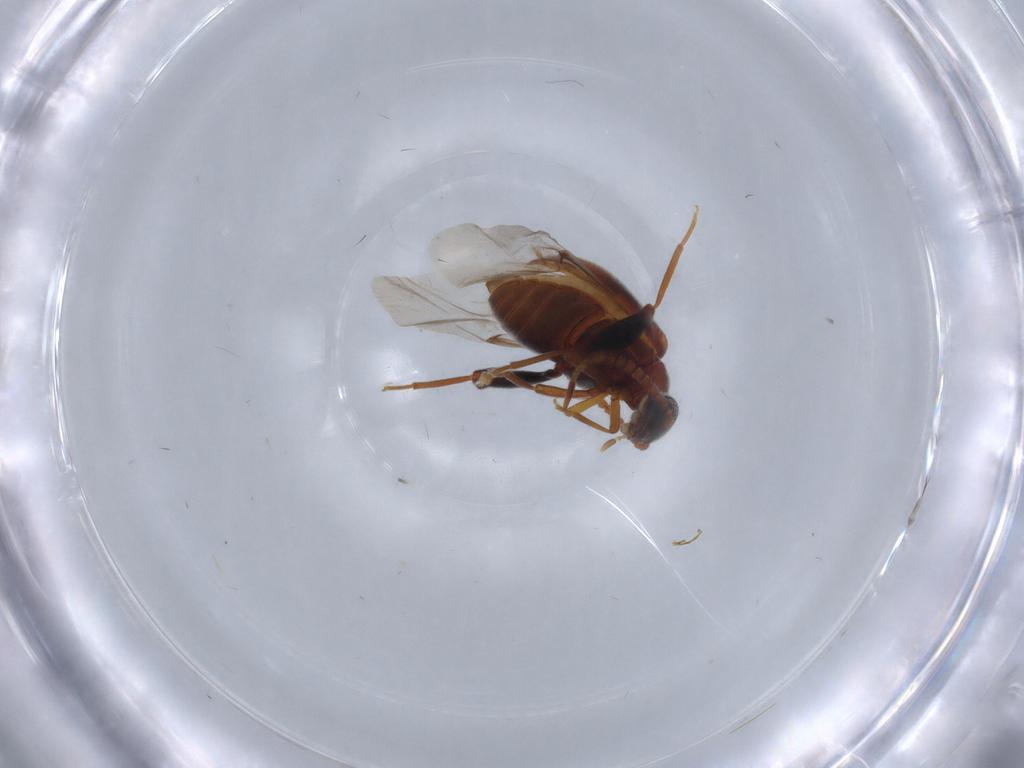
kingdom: Animalia
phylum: Arthropoda
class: Insecta
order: Coleoptera
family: Aderidae
